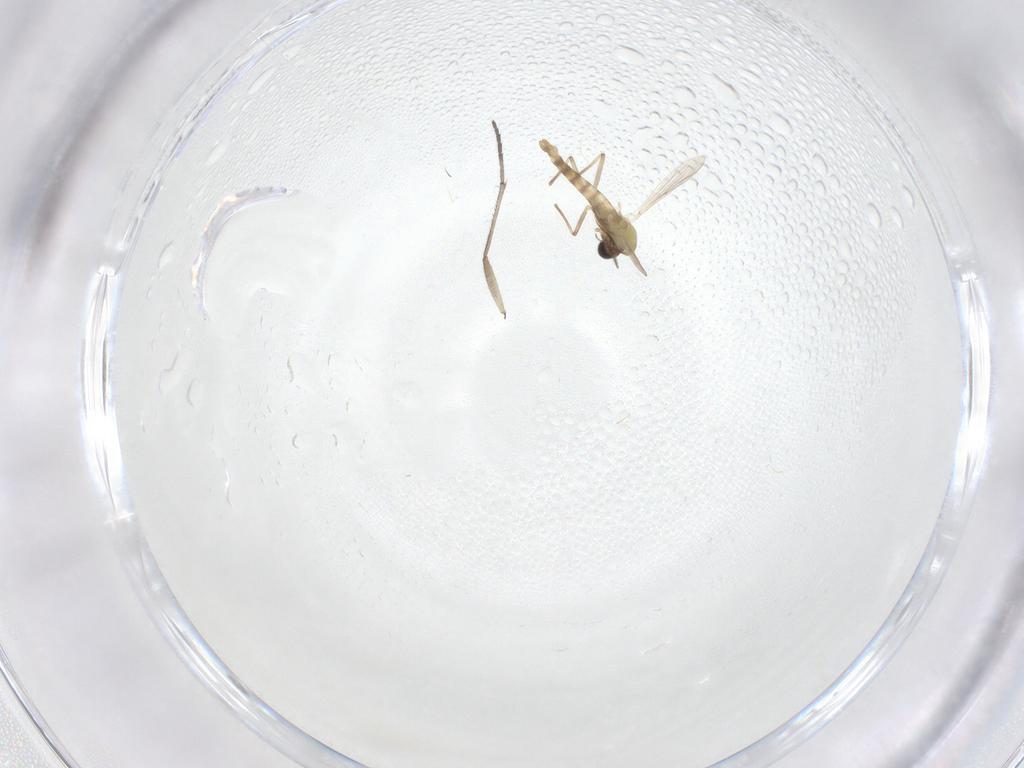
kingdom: Animalia
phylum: Arthropoda
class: Insecta
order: Diptera
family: Chironomidae
